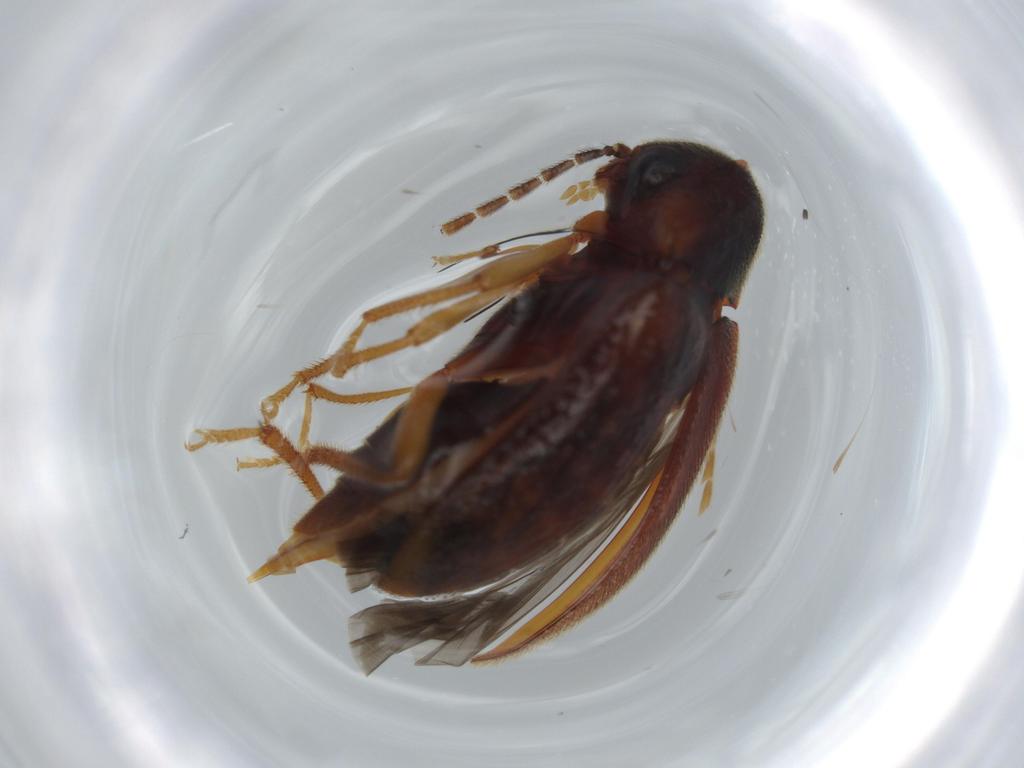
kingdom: Animalia
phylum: Arthropoda
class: Insecta
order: Coleoptera
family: Ptilodactylidae
